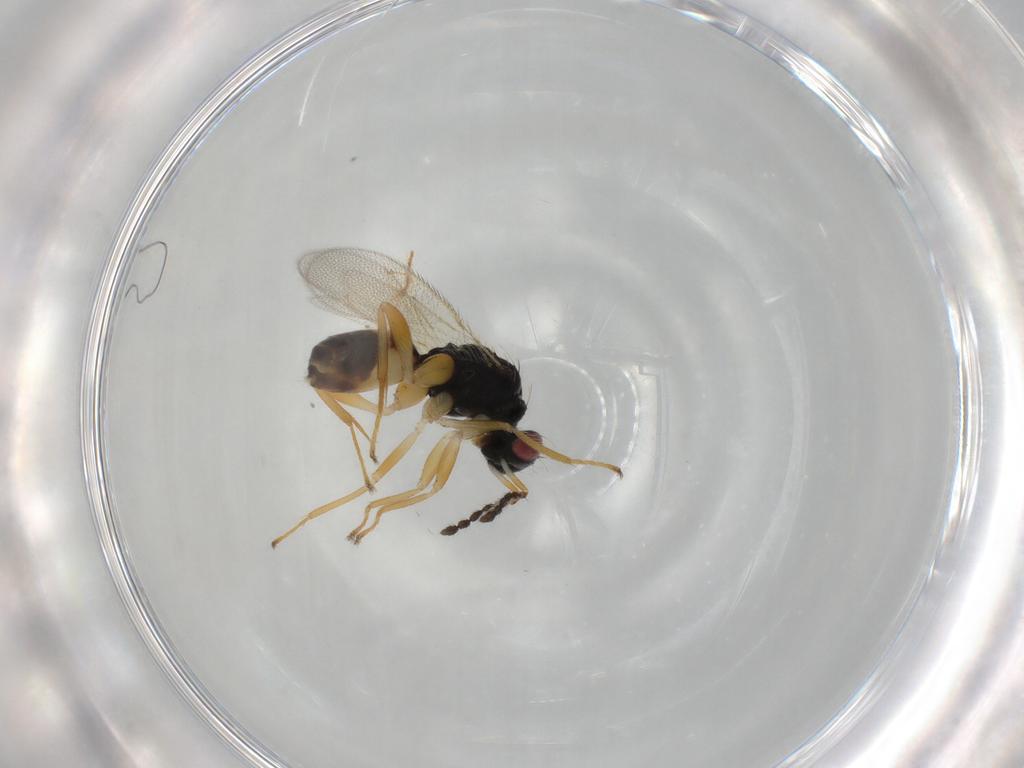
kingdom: Animalia
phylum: Arthropoda
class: Insecta
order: Hymenoptera
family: Eulophidae
